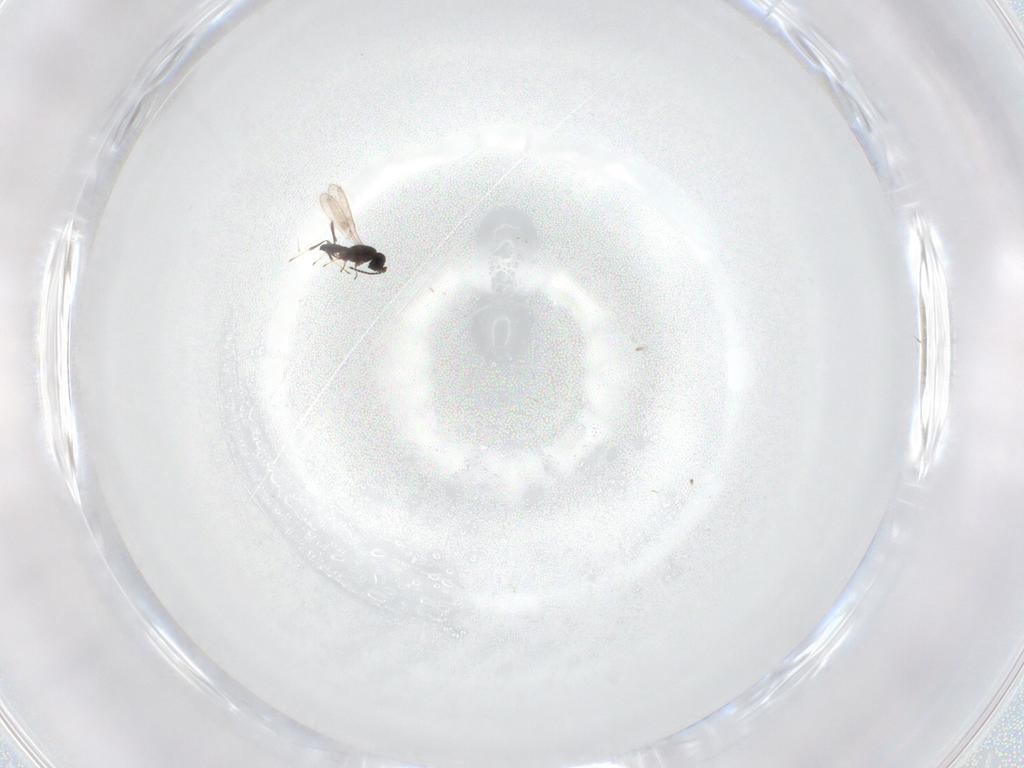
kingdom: Animalia
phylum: Arthropoda
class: Insecta
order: Hymenoptera
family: Scelionidae
